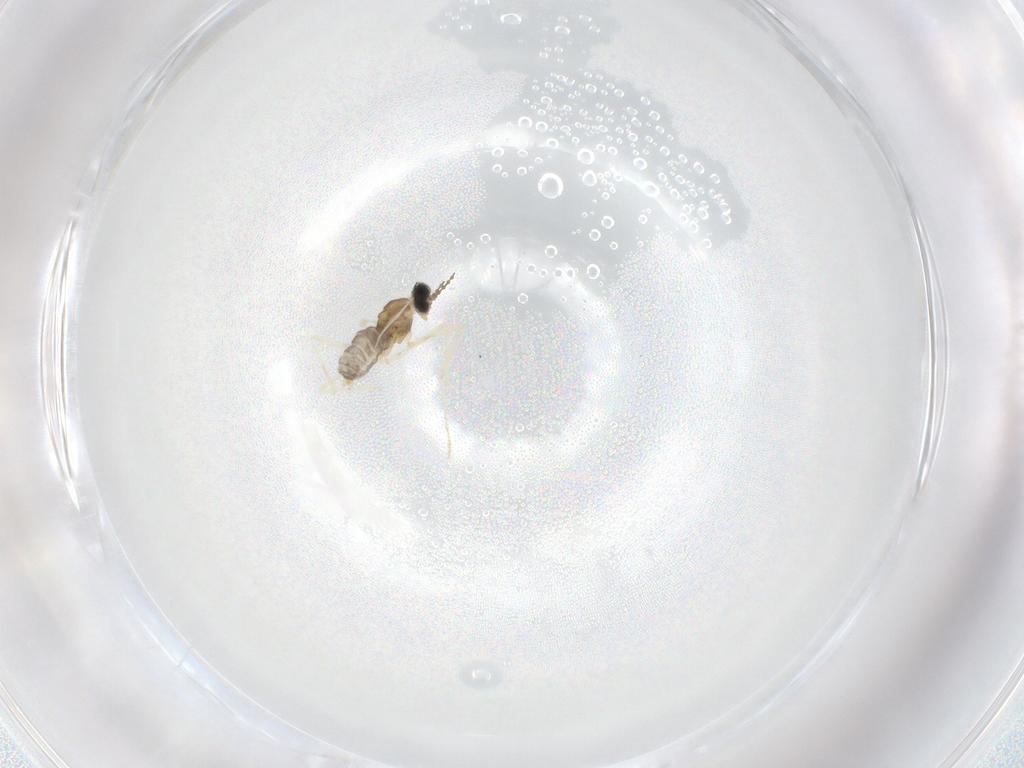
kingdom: Animalia
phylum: Arthropoda
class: Insecta
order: Diptera
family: Cecidomyiidae
